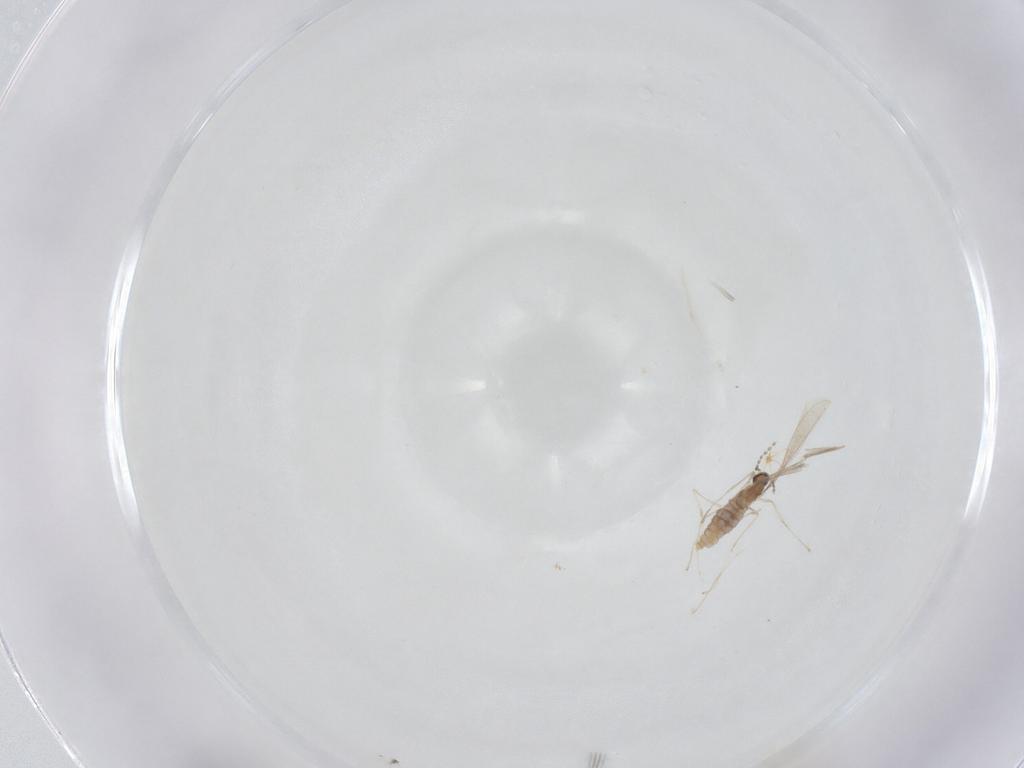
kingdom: Animalia
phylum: Arthropoda
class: Insecta
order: Diptera
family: Cecidomyiidae
